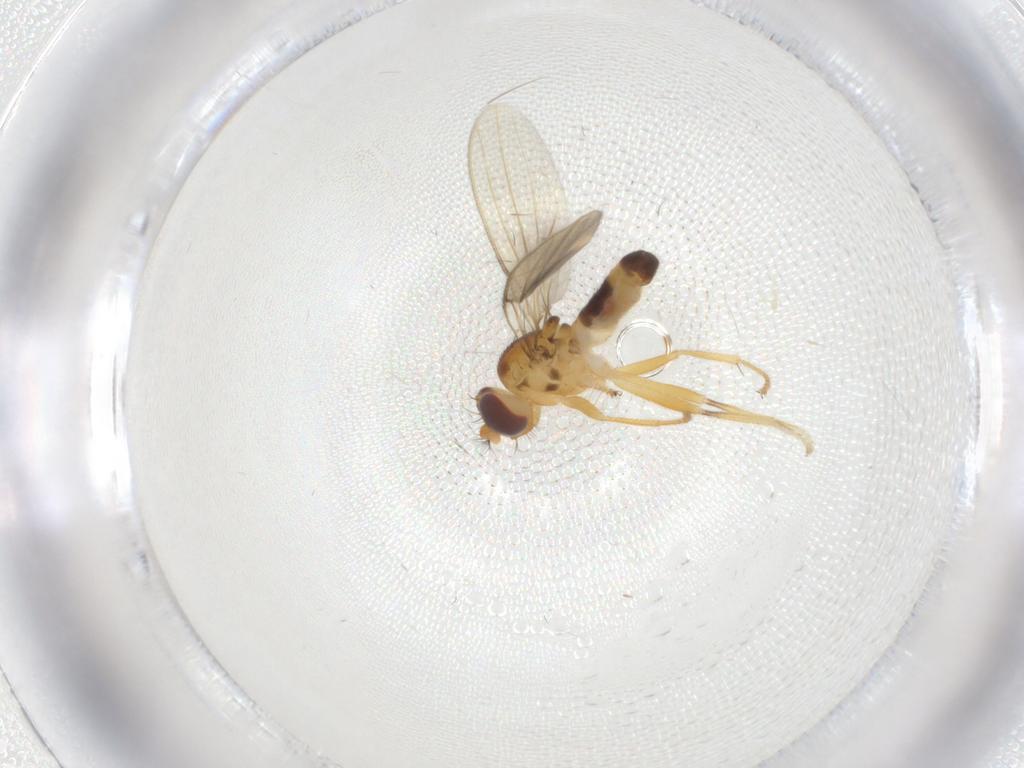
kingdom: Animalia
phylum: Arthropoda
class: Insecta
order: Diptera
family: Periscelididae
